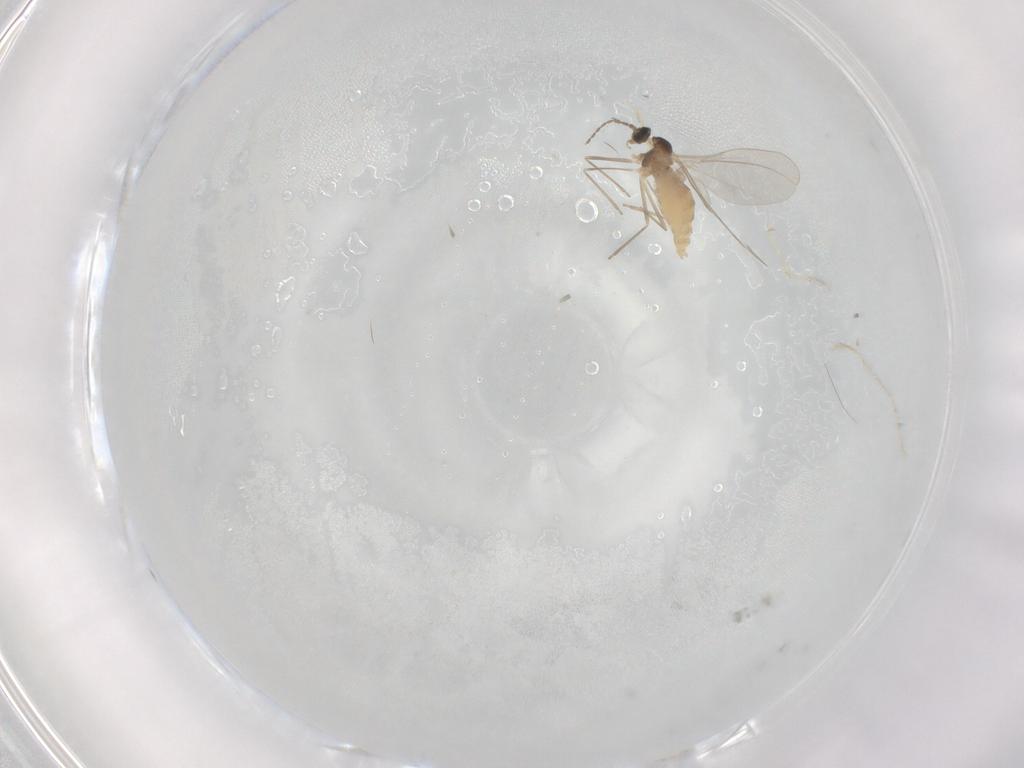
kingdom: Animalia
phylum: Arthropoda
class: Insecta
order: Diptera
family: Cecidomyiidae
